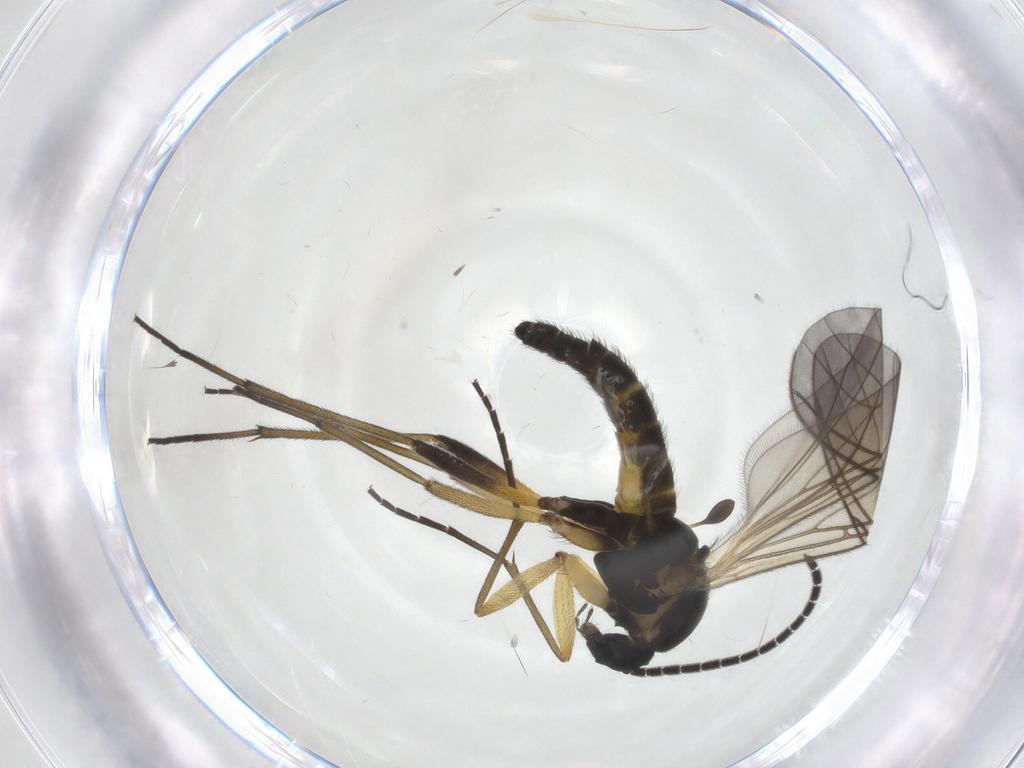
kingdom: Animalia
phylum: Arthropoda
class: Insecta
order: Diptera
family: Sciaridae
